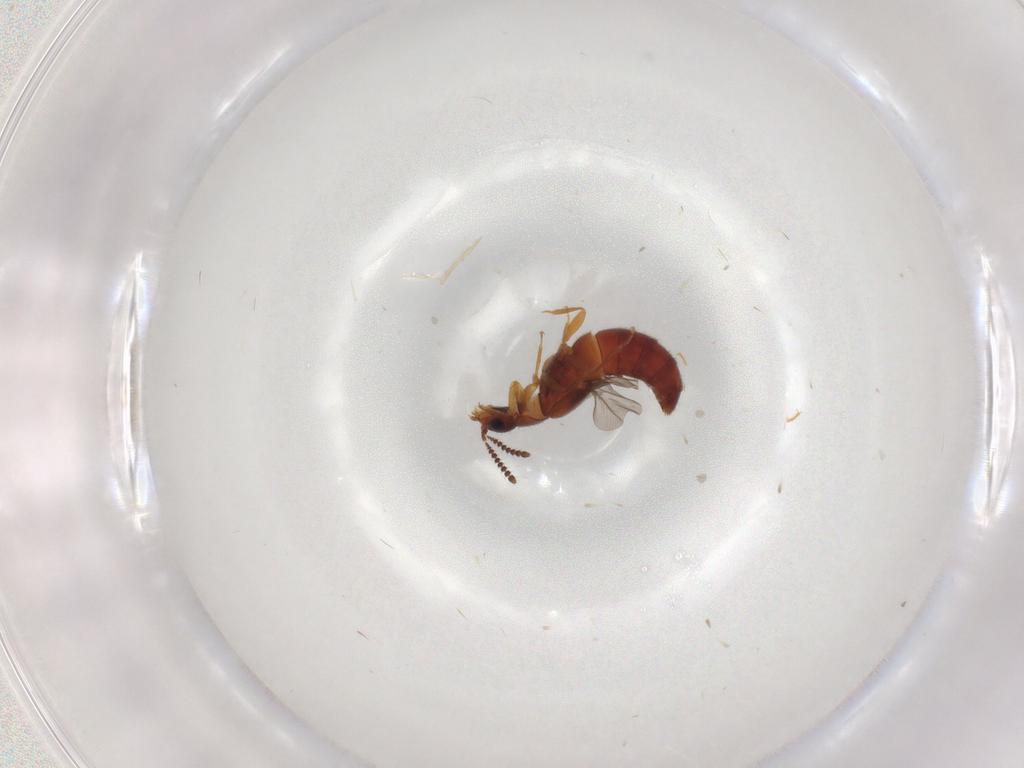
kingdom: Animalia
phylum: Arthropoda
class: Insecta
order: Coleoptera
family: Staphylinidae
